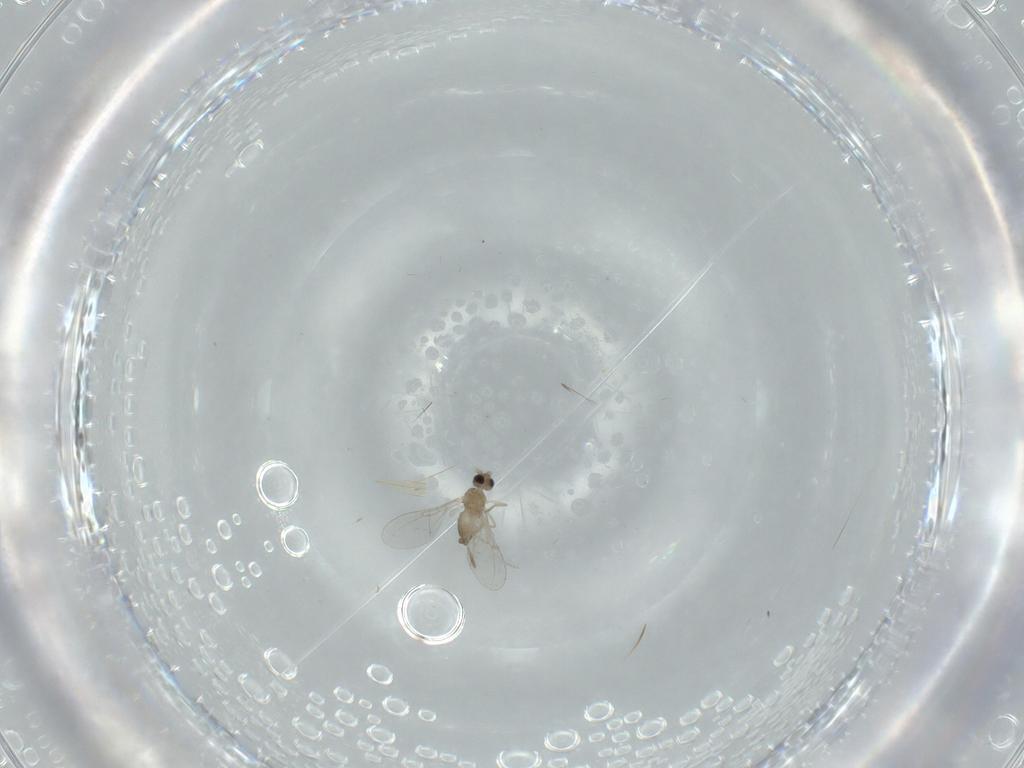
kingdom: Animalia
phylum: Arthropoda
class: Insecta
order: Diptera
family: Cecidomyiidae
